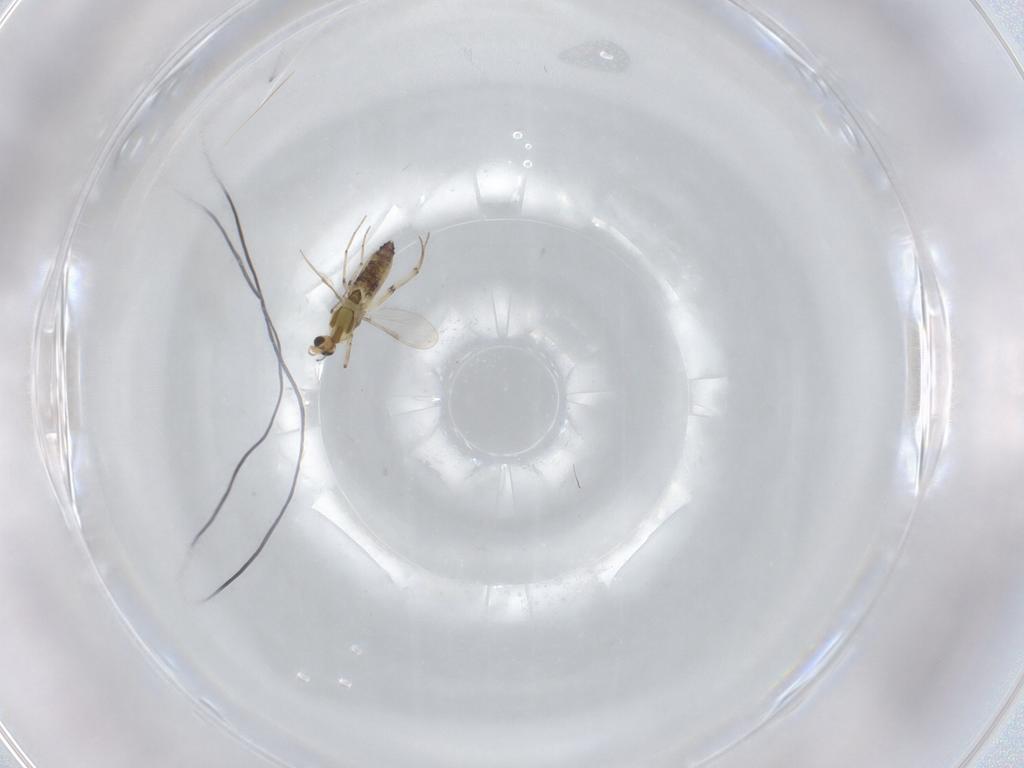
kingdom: Animalia
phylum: Arthropoda
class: Insecta
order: Diptera
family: Chironomidae
